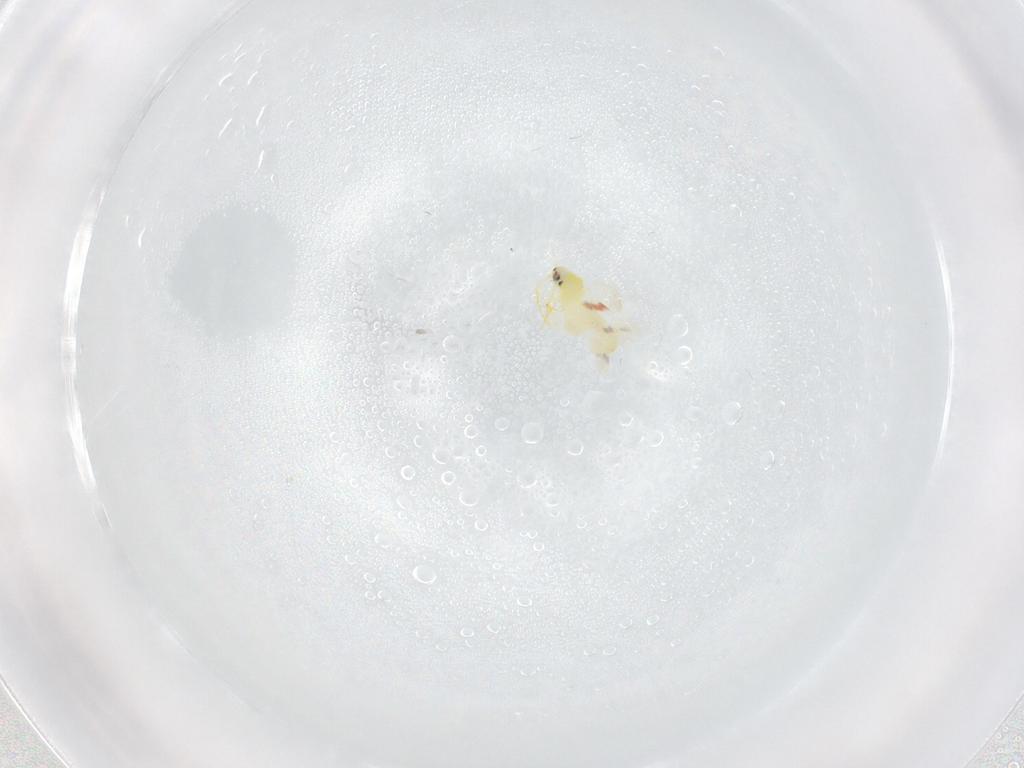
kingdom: Animalia
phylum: Arthropoda
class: Insecta
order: Hemiptera
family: Aleyrodidae
